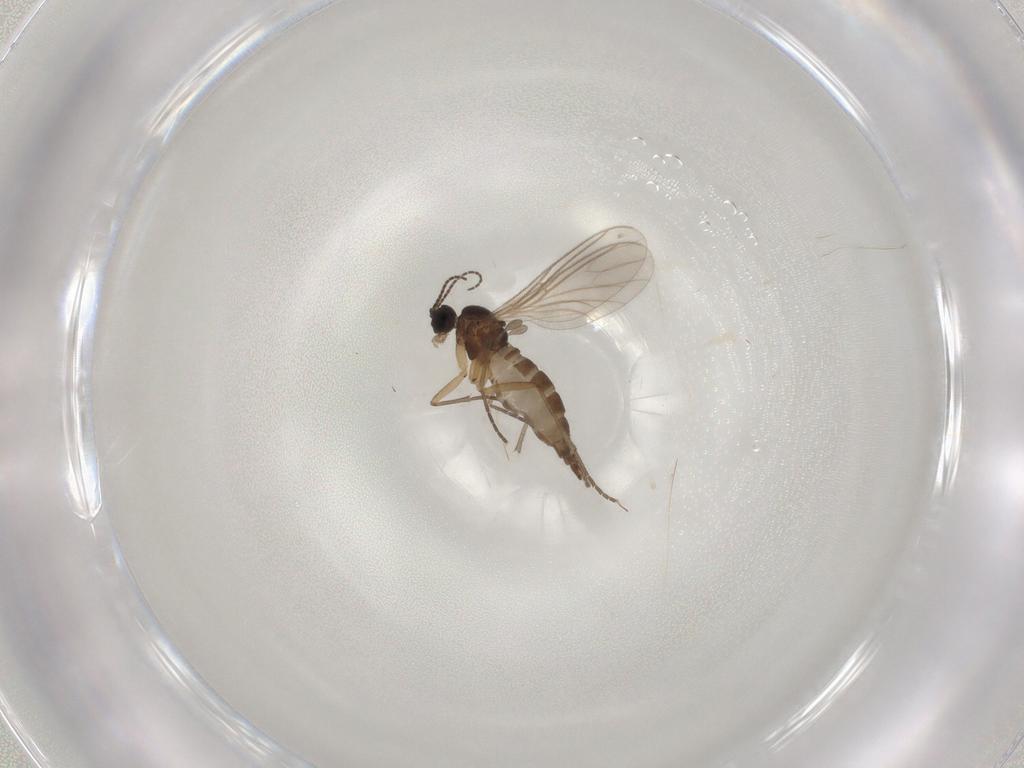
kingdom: Animalia
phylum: Arthropoda
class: Insecta
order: Diptera
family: Sciaridae
